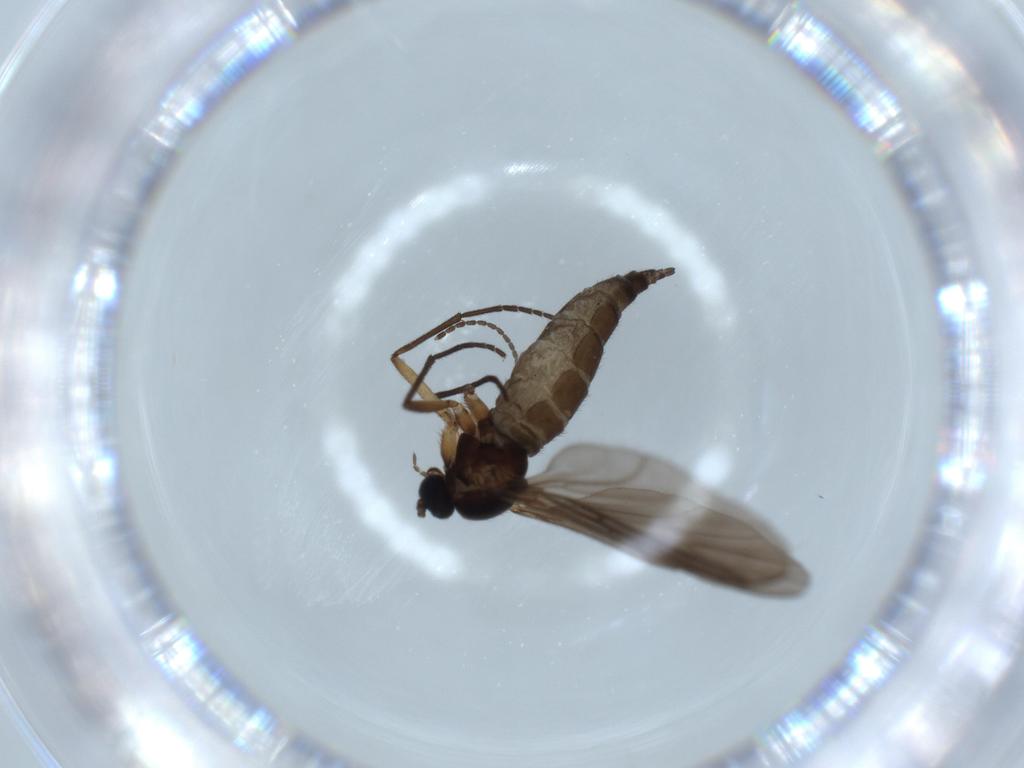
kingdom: Animalia
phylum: Arthropoda
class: Insecta
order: Diptera
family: Sciaridae
